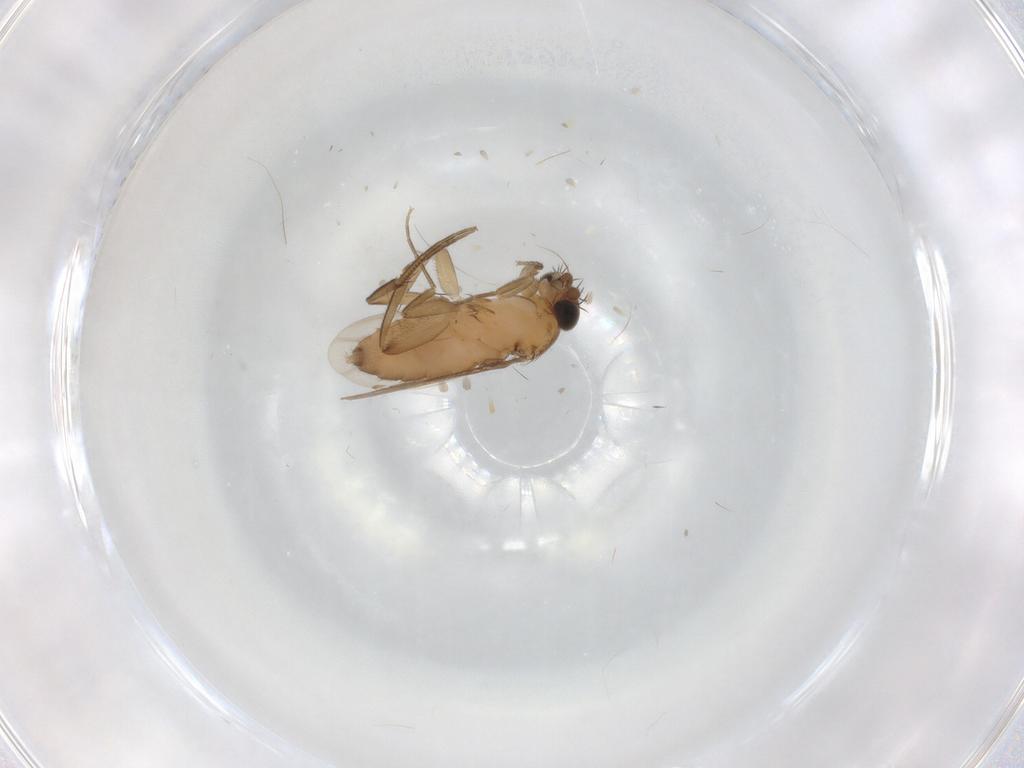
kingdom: Animalia
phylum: Arthropoda
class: Insecta
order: Diptera
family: Phoridae
